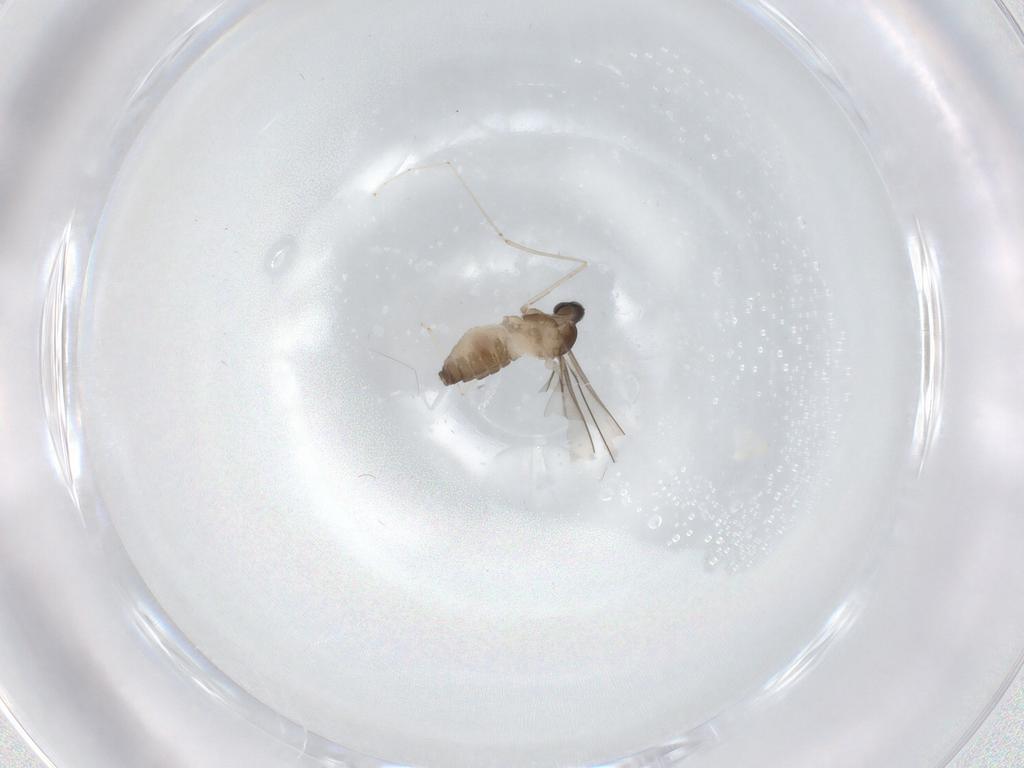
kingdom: Animalia
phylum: Arthropoda
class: Insecta
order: Diptera
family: Cecidomyiidae
